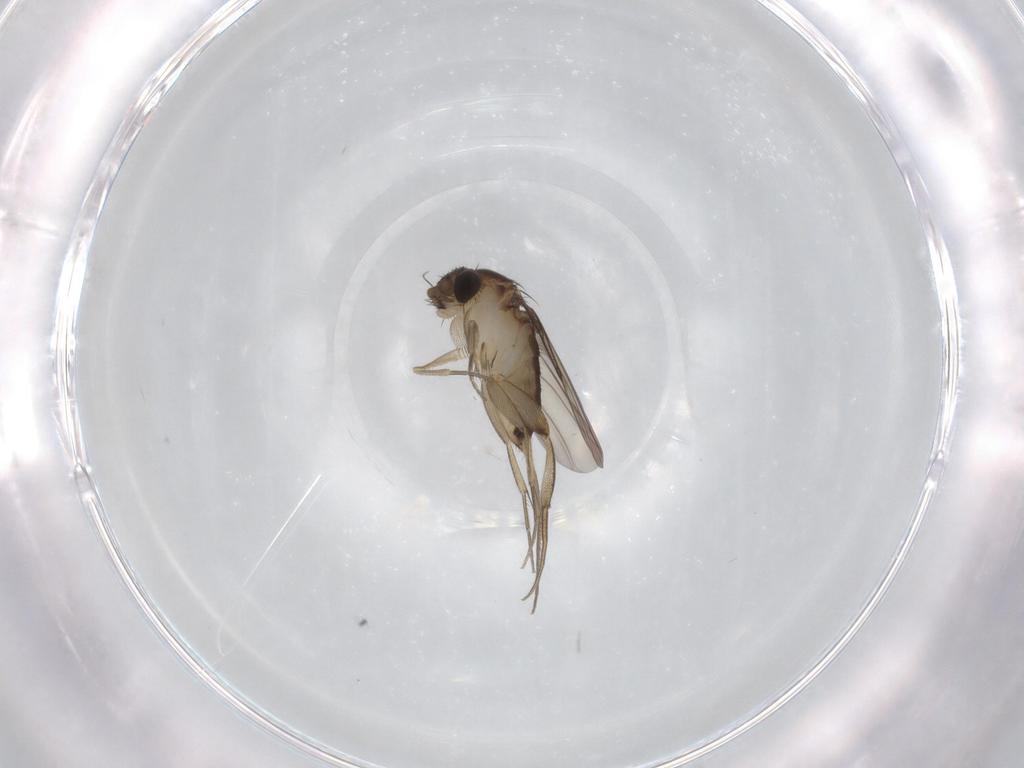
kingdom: Animalia
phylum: Arthropoda
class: Insecta
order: Diptera
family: Phoridae
